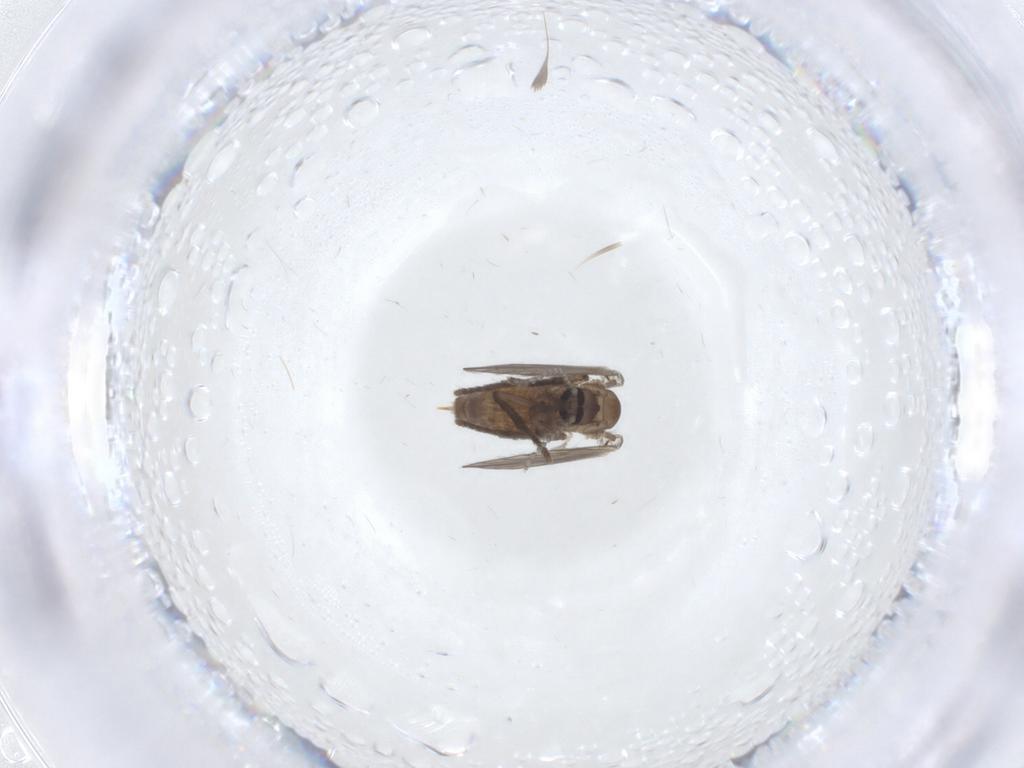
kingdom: Animalia
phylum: Arthropoda
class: Insecta
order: Diptera
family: Psychodidae
